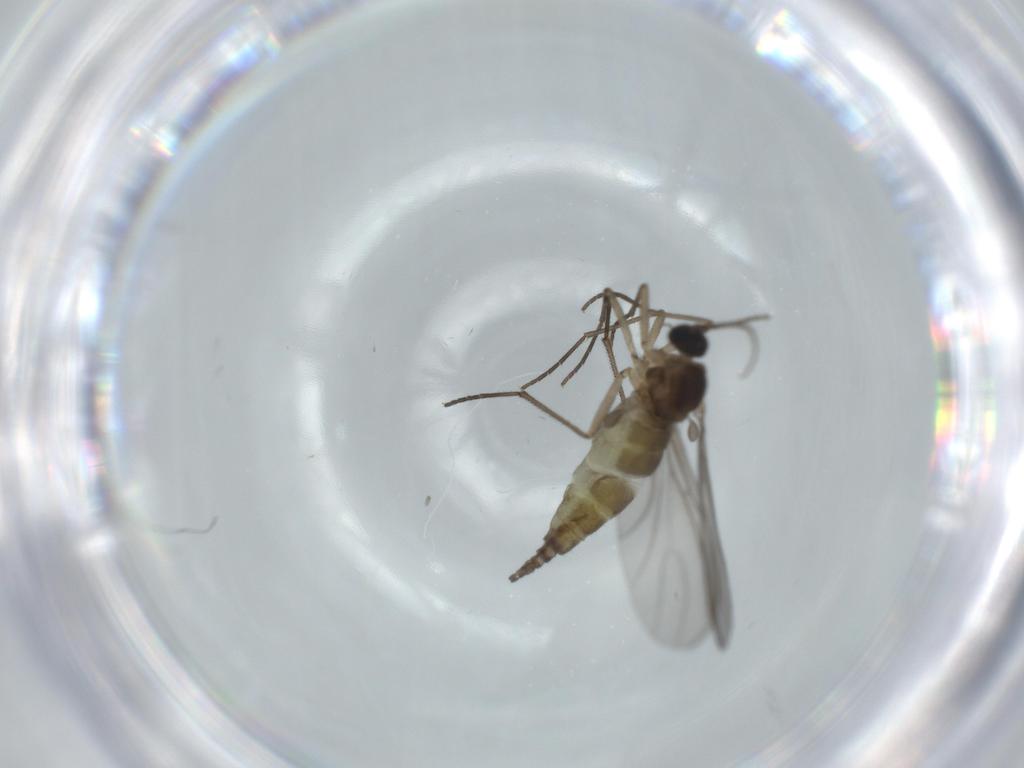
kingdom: Animalia
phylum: Arthropoda
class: Insecta
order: Diptera
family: Sciaridae
